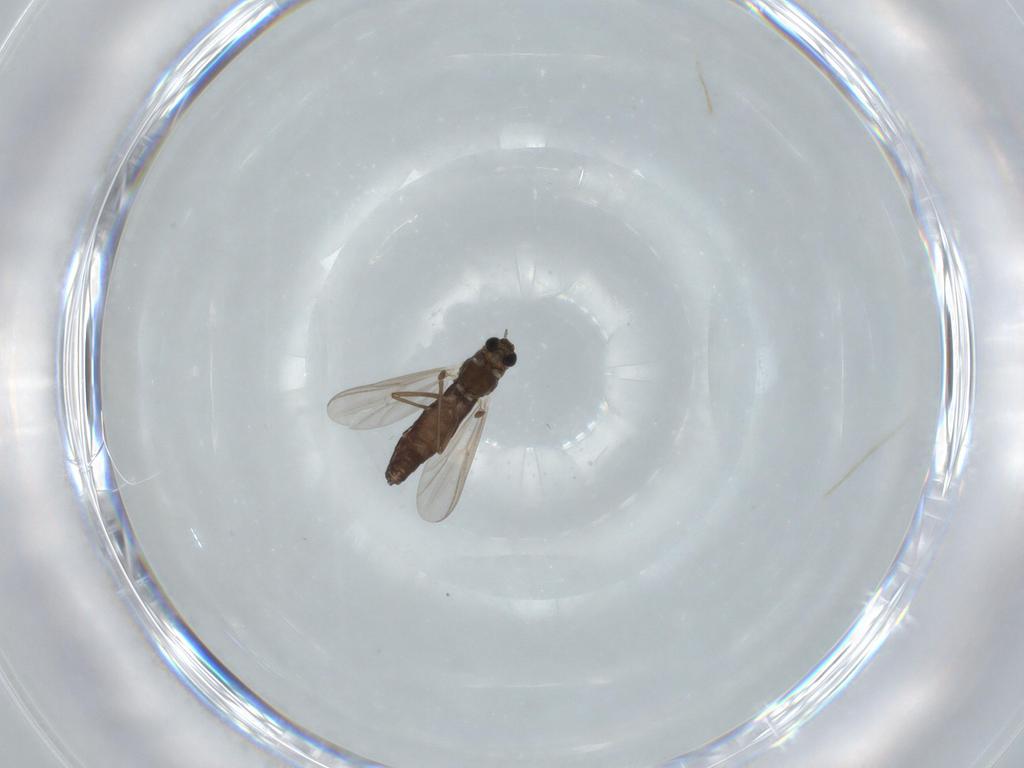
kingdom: Animalia
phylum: Arthropoda
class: Insecta
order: Diptera
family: Chironomidae
